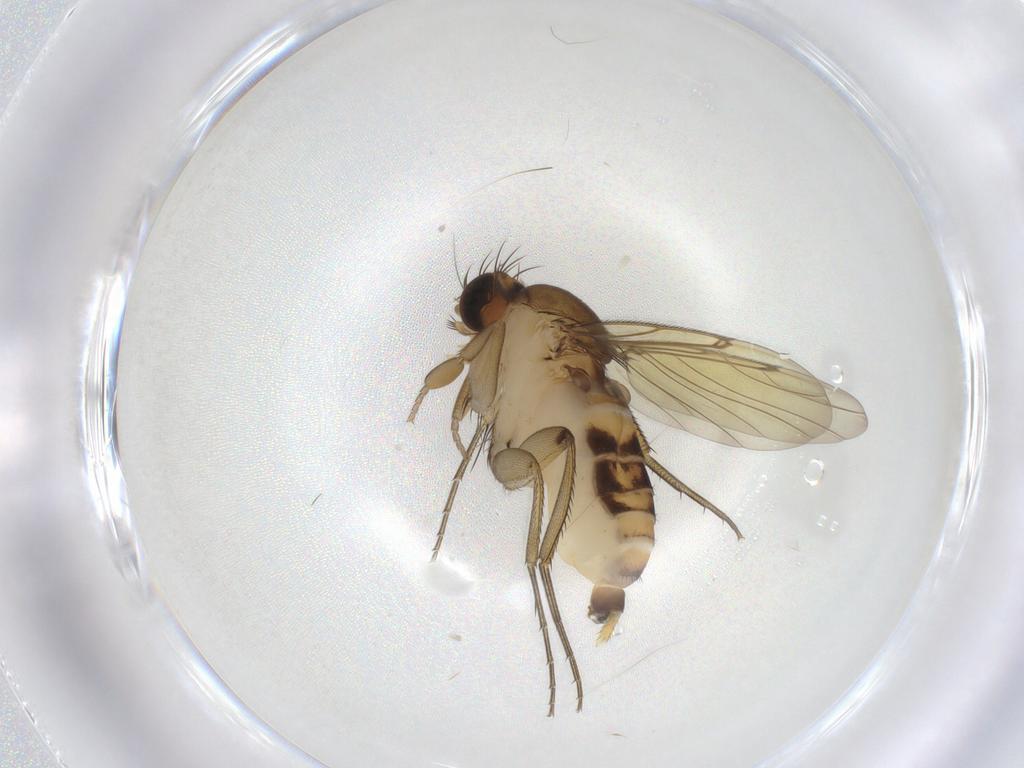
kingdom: Animalia
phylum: Arthropoda
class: Insecta
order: Diptera
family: Phoridae
